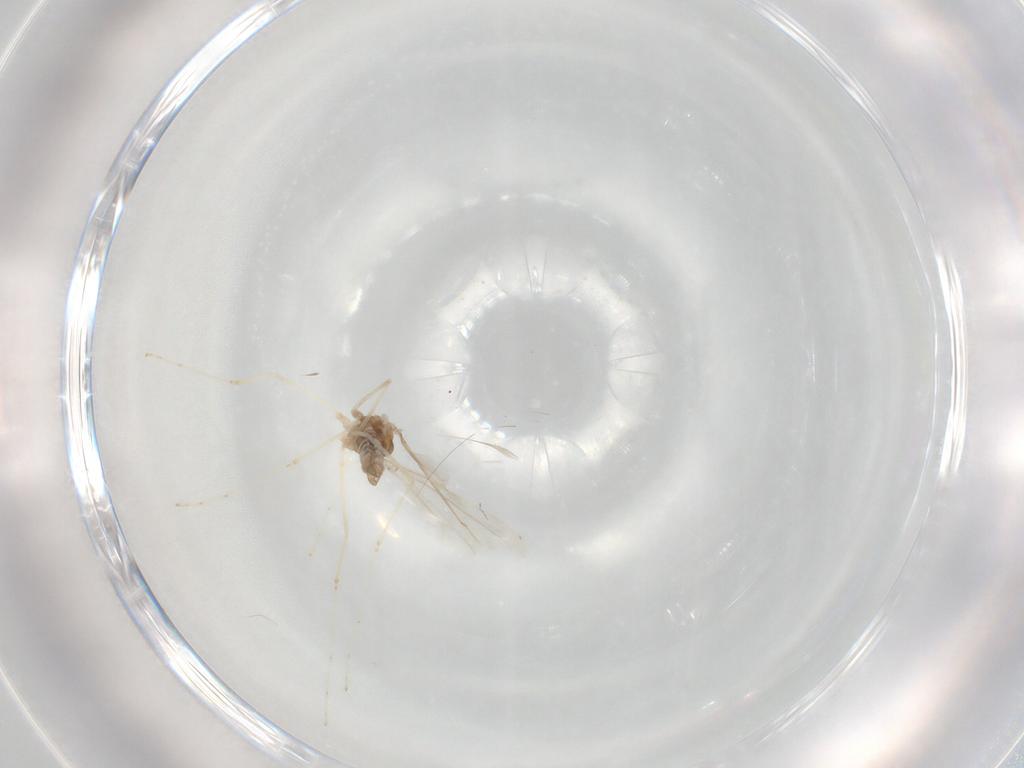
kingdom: Animalia
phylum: Arthropoda
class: Insecta
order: Diptera
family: Cecidomyiidae
